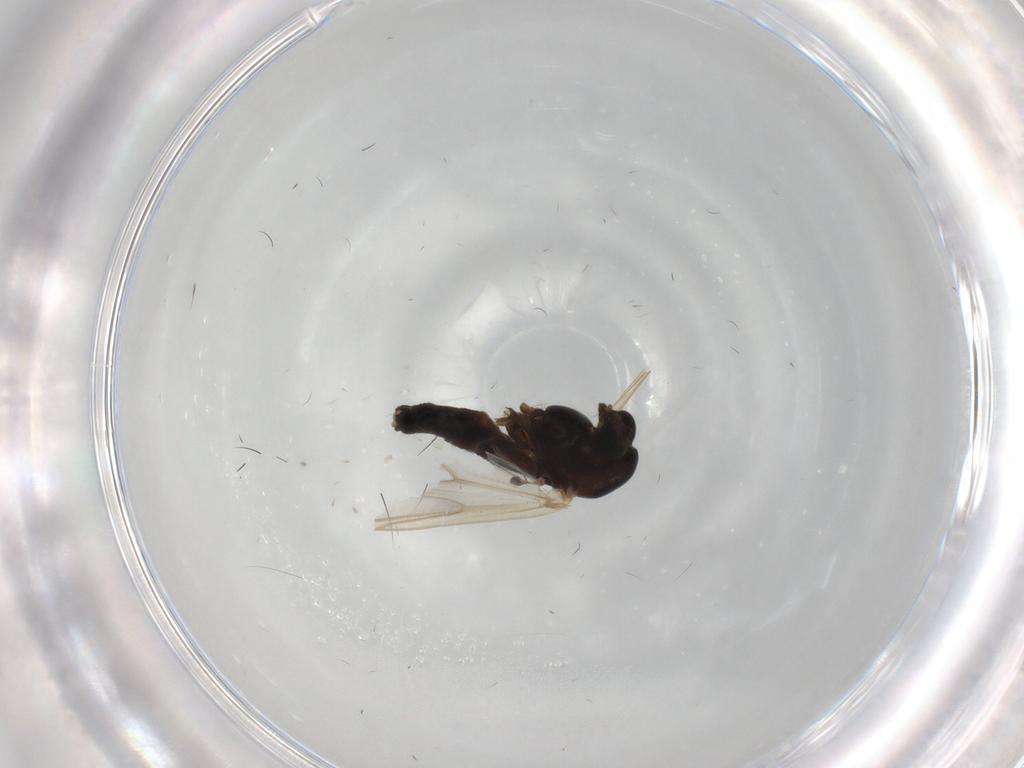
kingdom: Animalia
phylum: Arthropoda
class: Insecta
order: Diptera
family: Chironomidae
